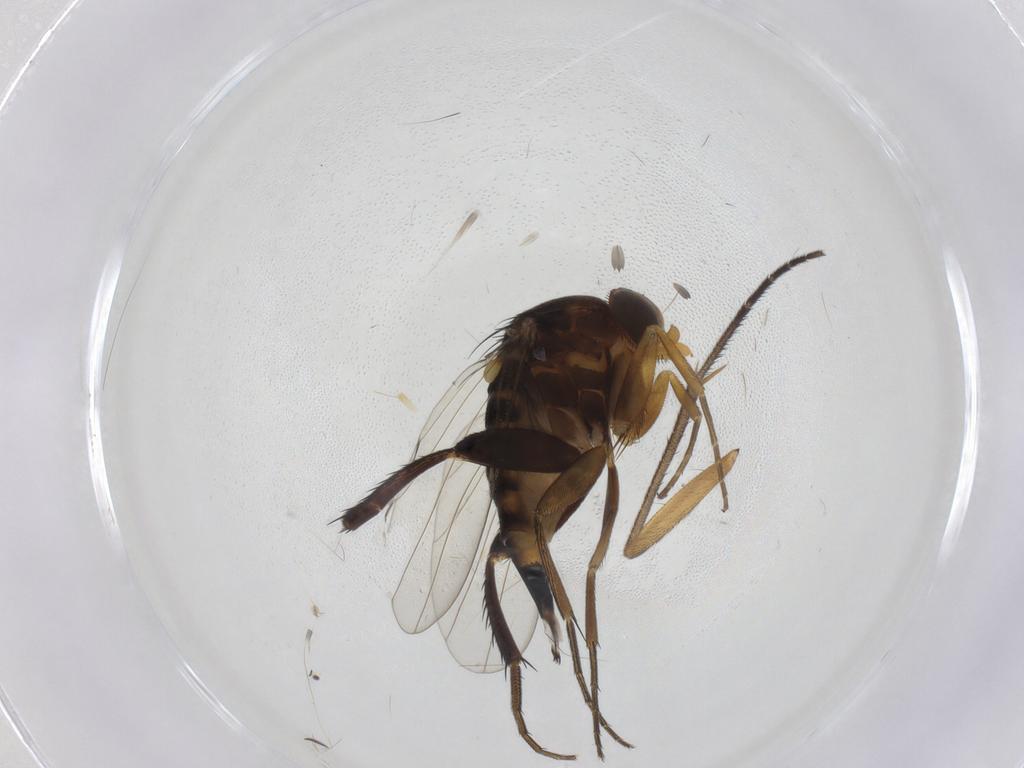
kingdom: Animalia
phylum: Arthropoda
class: Insecta
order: Diptera
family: Phoridae
